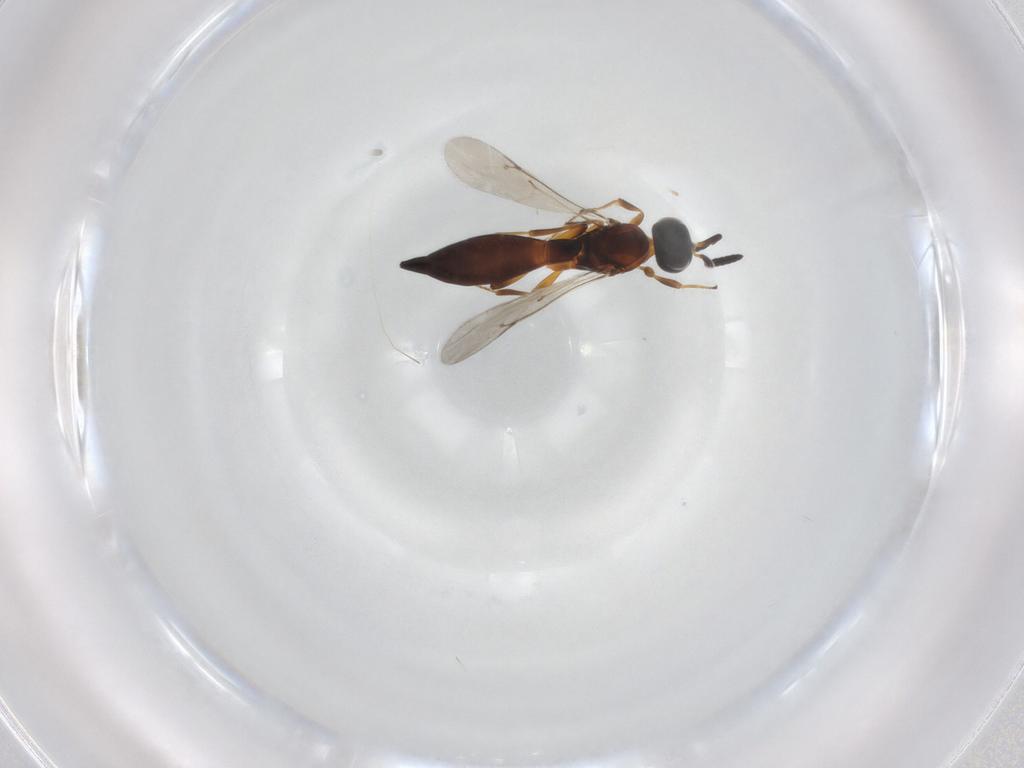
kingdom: Animalia
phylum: Arthropoda
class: Insecta
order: Hymenoptera
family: Scelionidae
